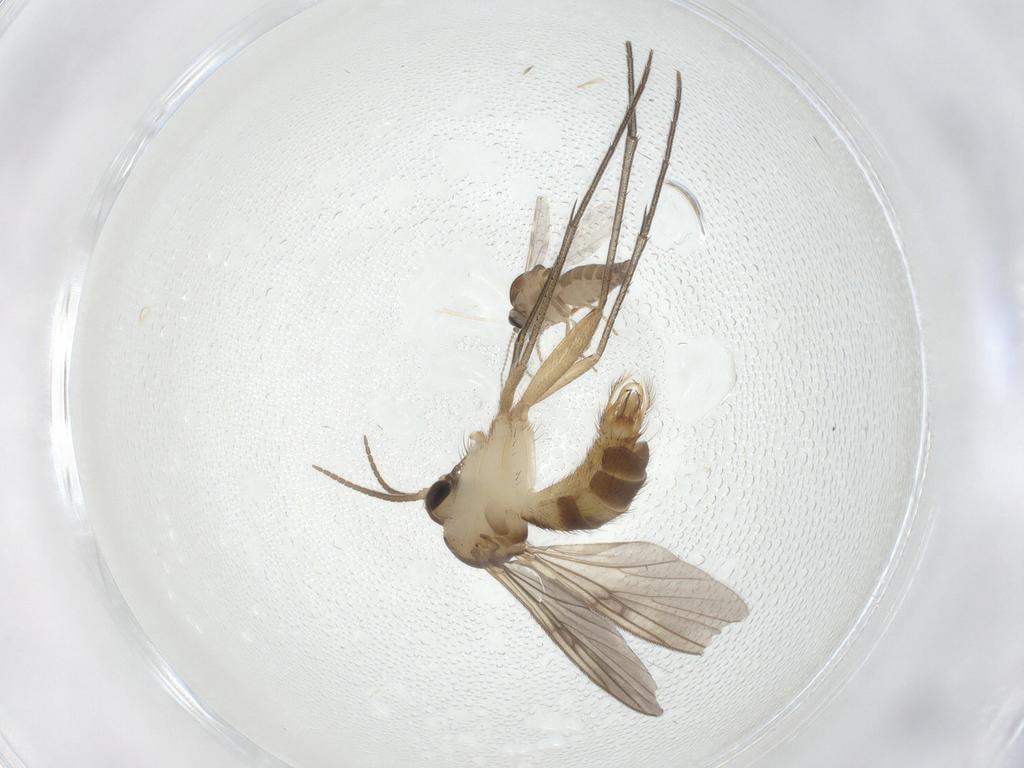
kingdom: Animalia
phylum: Arthropoda
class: Insecta
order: Diptera
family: Ceratopogonidae
